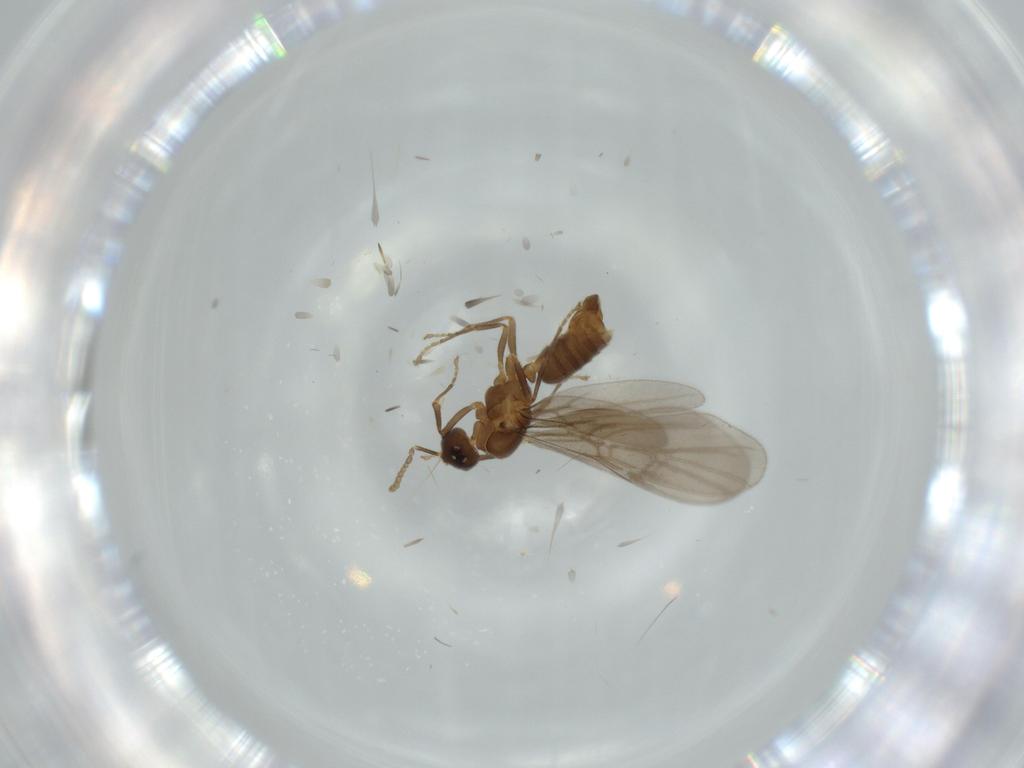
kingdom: Animalia
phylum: Arthropoda
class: Insecta
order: Hymenoptera
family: Formicidae
